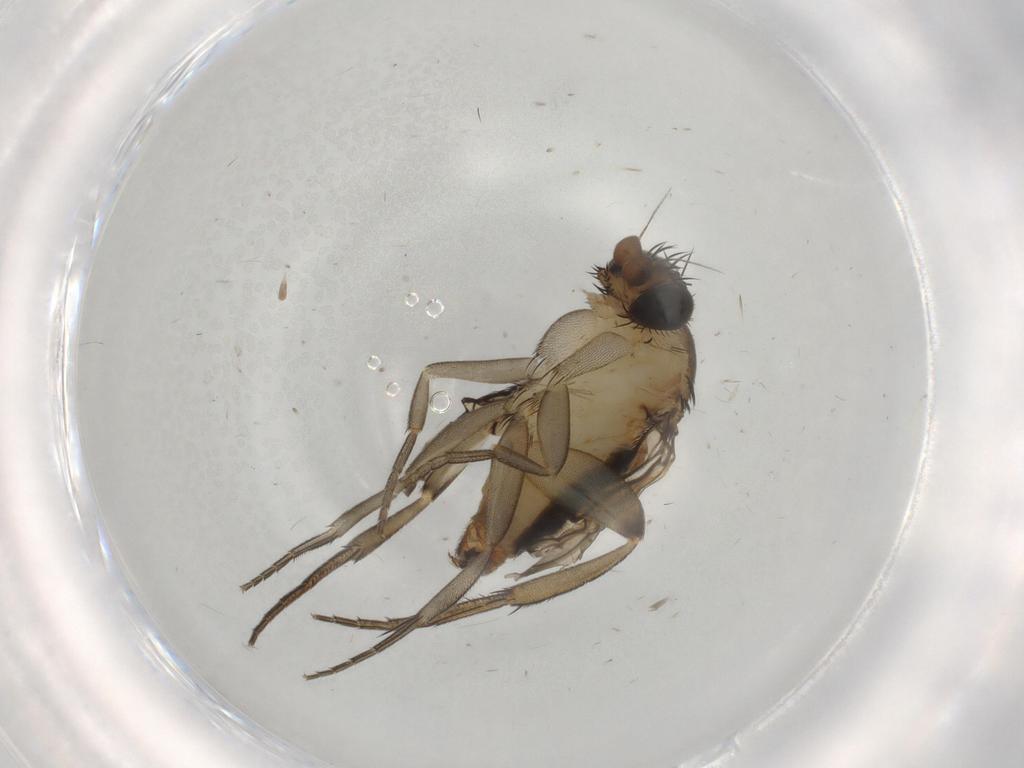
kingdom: Animalia
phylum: Arthropoda
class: Insecta
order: Diptera
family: Phoridae
